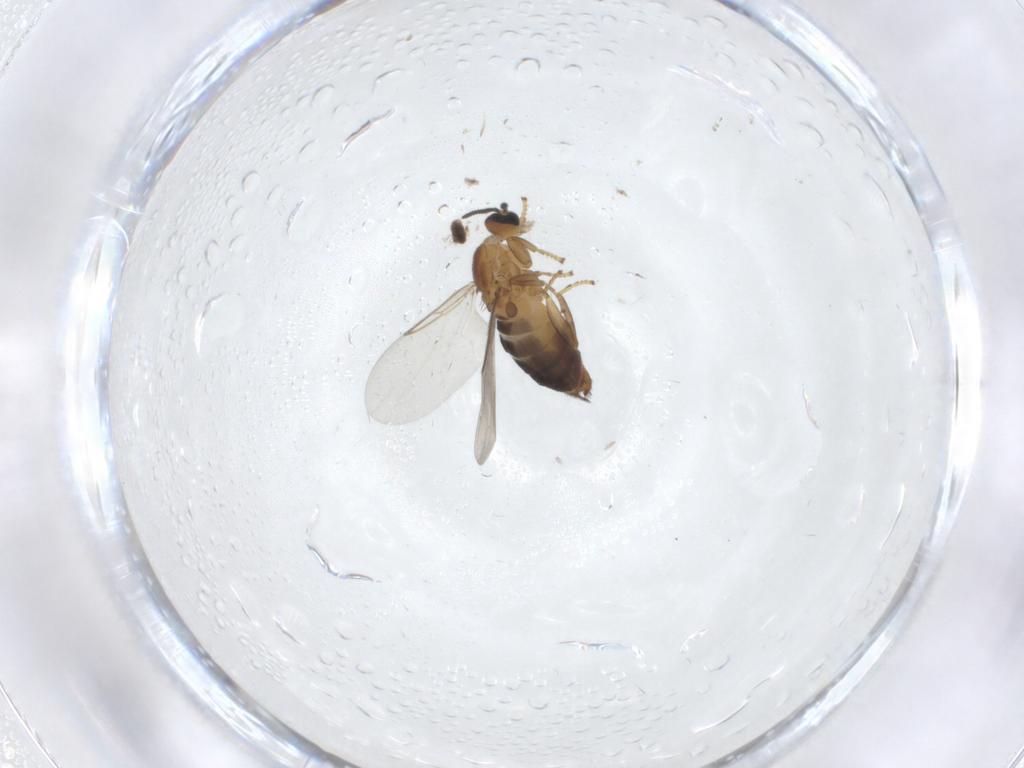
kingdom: Animalia
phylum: Arthropoda
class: Insecta
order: Diptera
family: Scatopsidae
